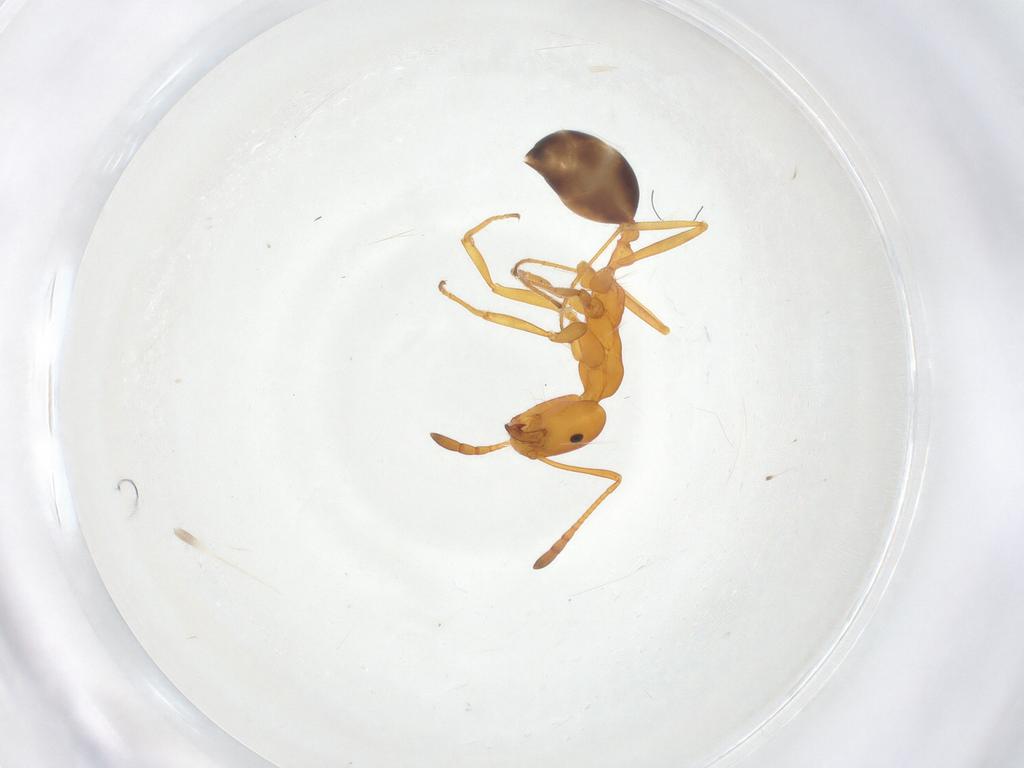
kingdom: Animalia
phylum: Arthropoda
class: Insecta
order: Hymenoptera
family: Formicidae
